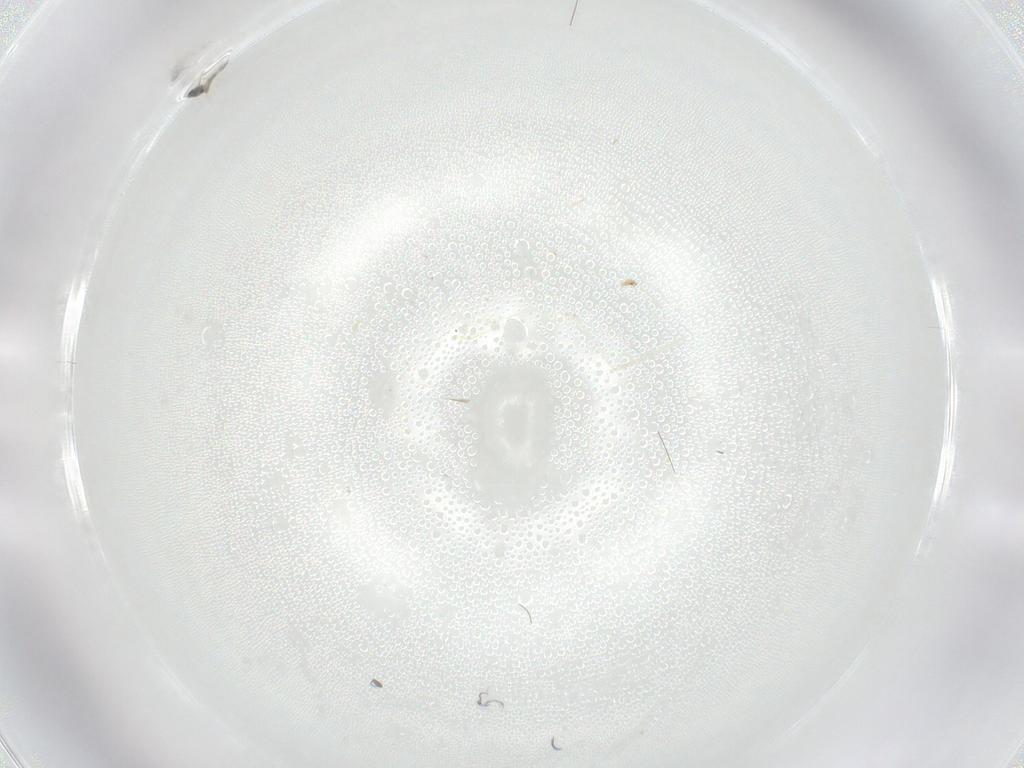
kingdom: Animalia
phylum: Arthropoda
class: Insecta
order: Diptera
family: Cecidomyiidae
